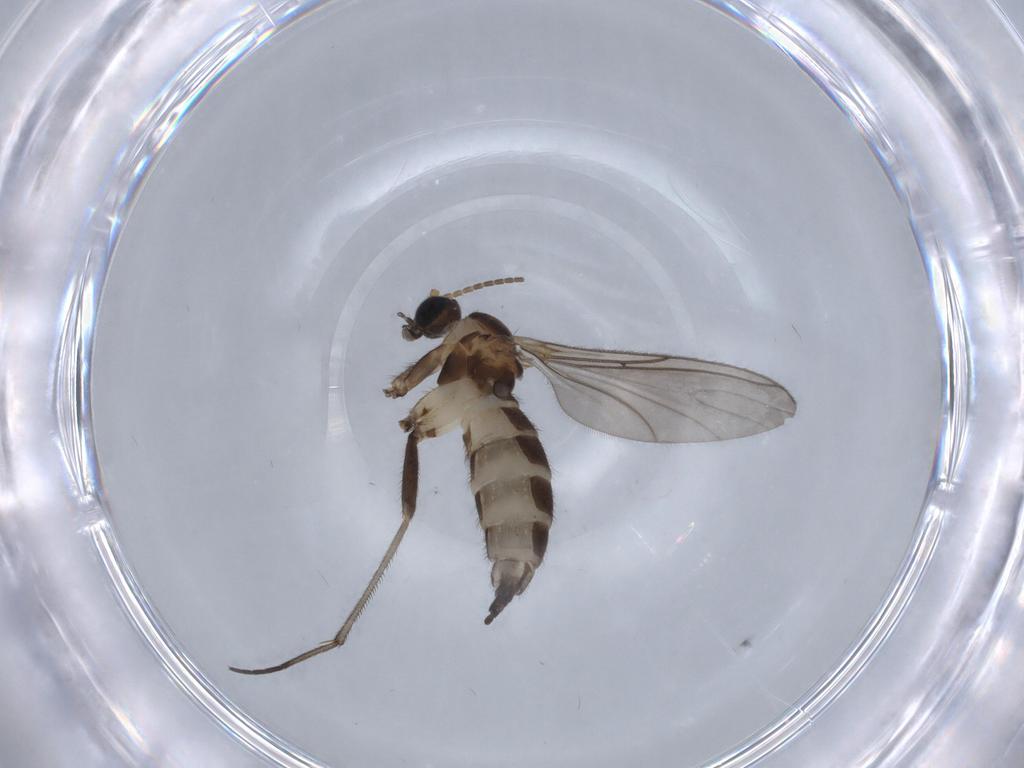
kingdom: Animalia
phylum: Arthropoda
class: Insecta
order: Diptera
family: Sciaridae
